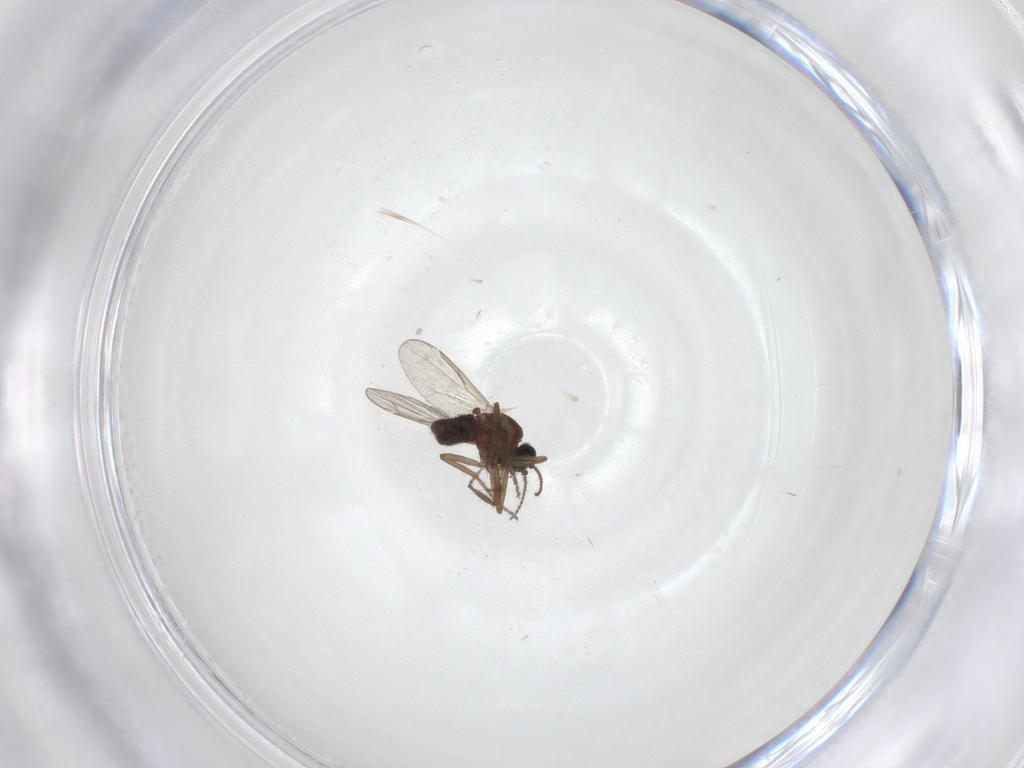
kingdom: Animalia
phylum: Arthropoda
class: Insecta
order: Diptera
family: Ceratopogonidae
